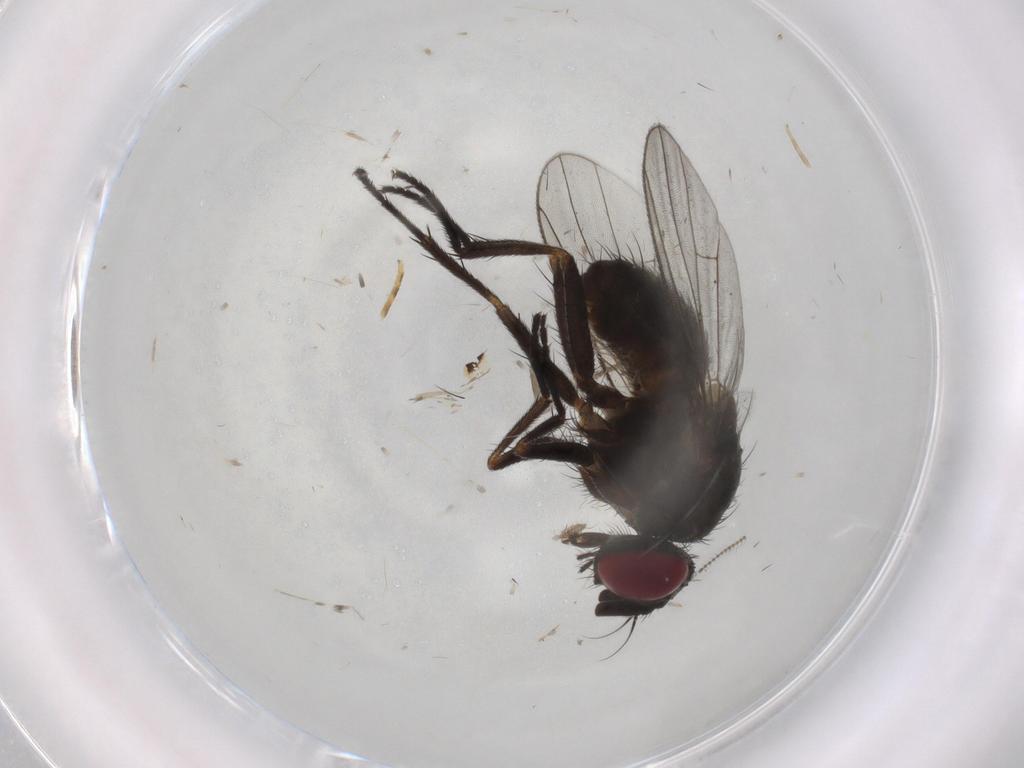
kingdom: Animalia
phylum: Arthropoda
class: Insecta
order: Diptera
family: Muscidae
